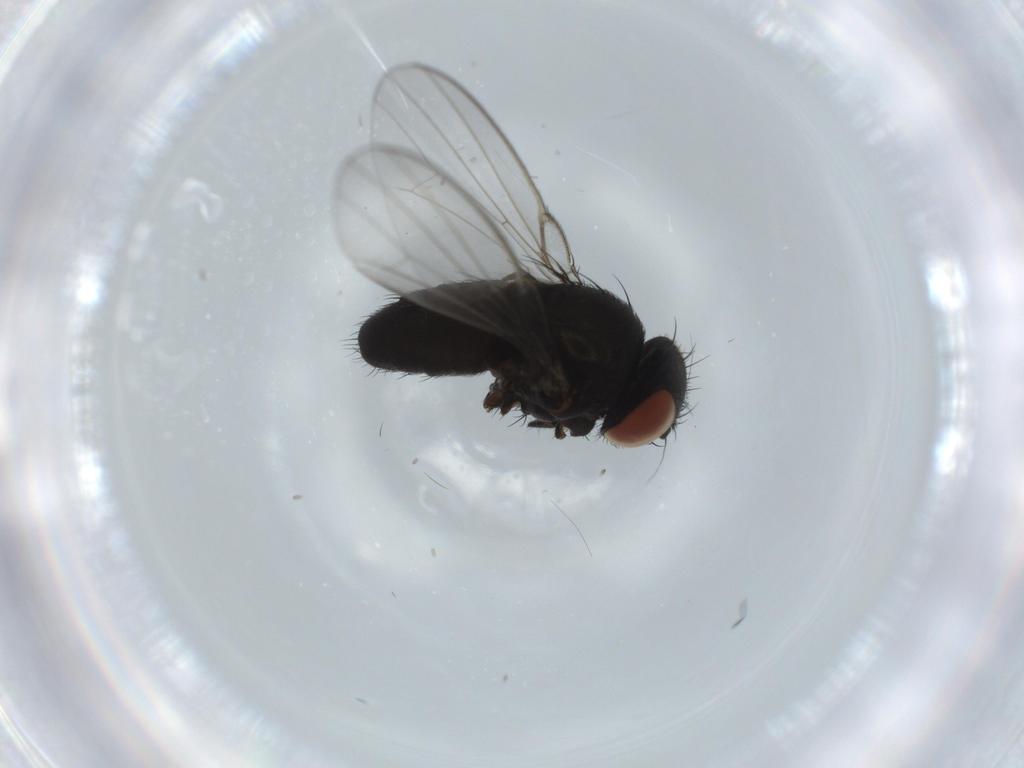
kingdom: Animalia
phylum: Arthropoda
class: Insecta
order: Diptera
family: Milichiidae
